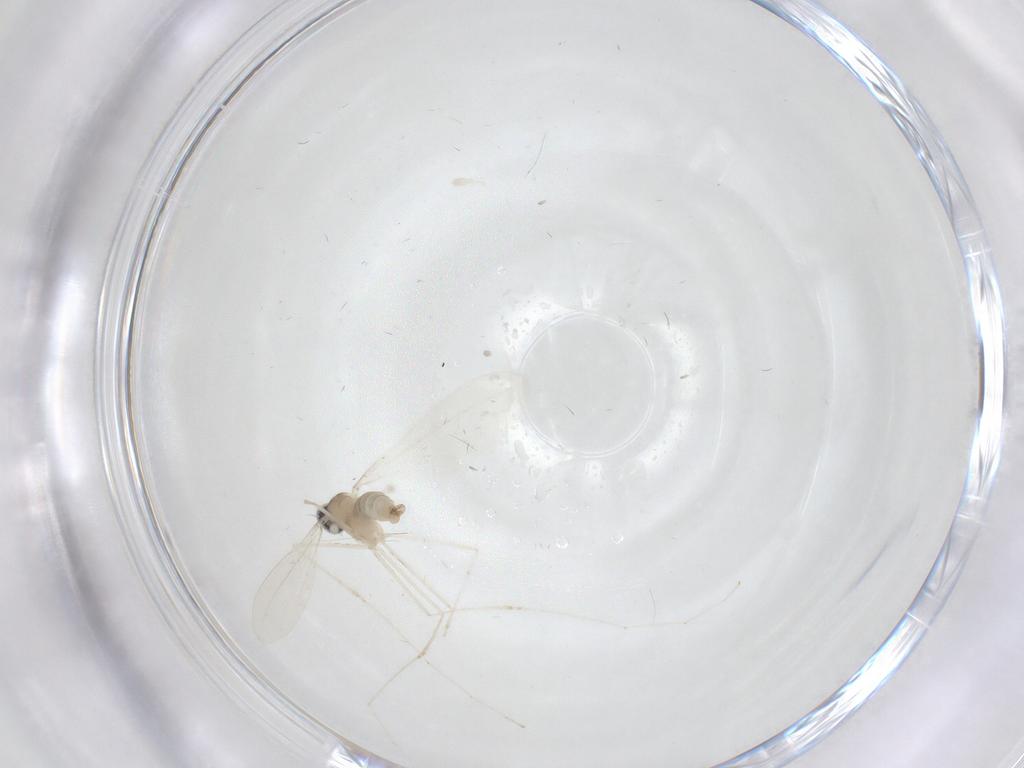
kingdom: Animalia
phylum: Arthropoda
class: Insecta
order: Diptera
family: Cecidomyiidae
